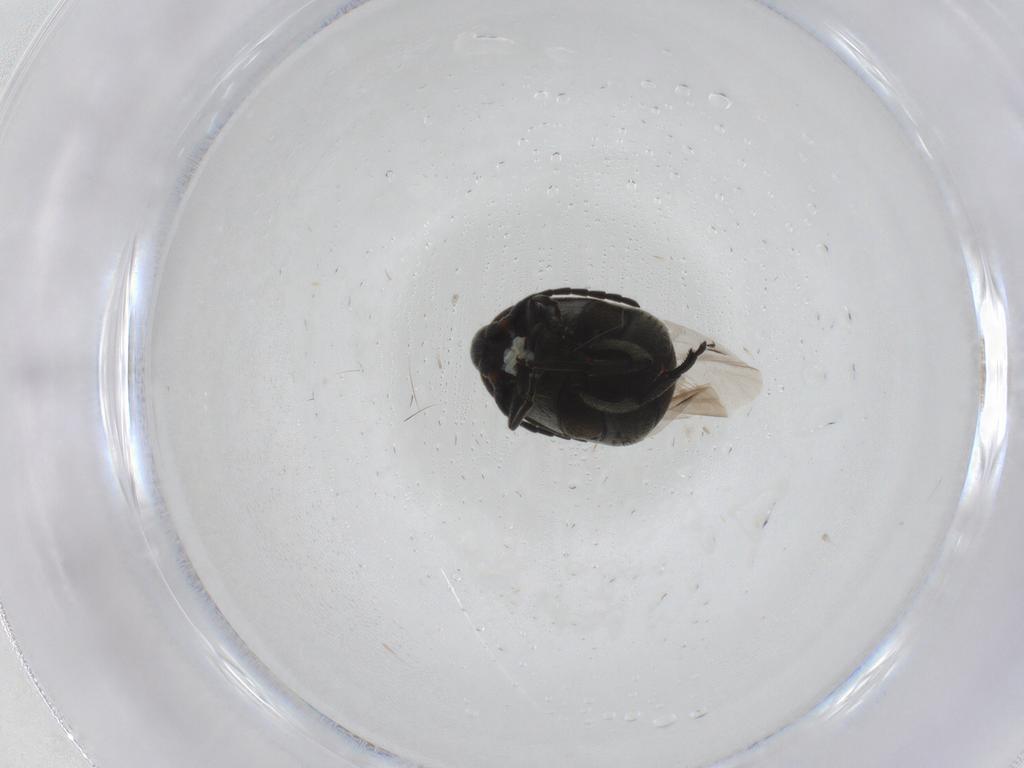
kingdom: Animalia
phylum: Arthropoda
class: Insecta
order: Coleoptera
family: Chrysomelidae
